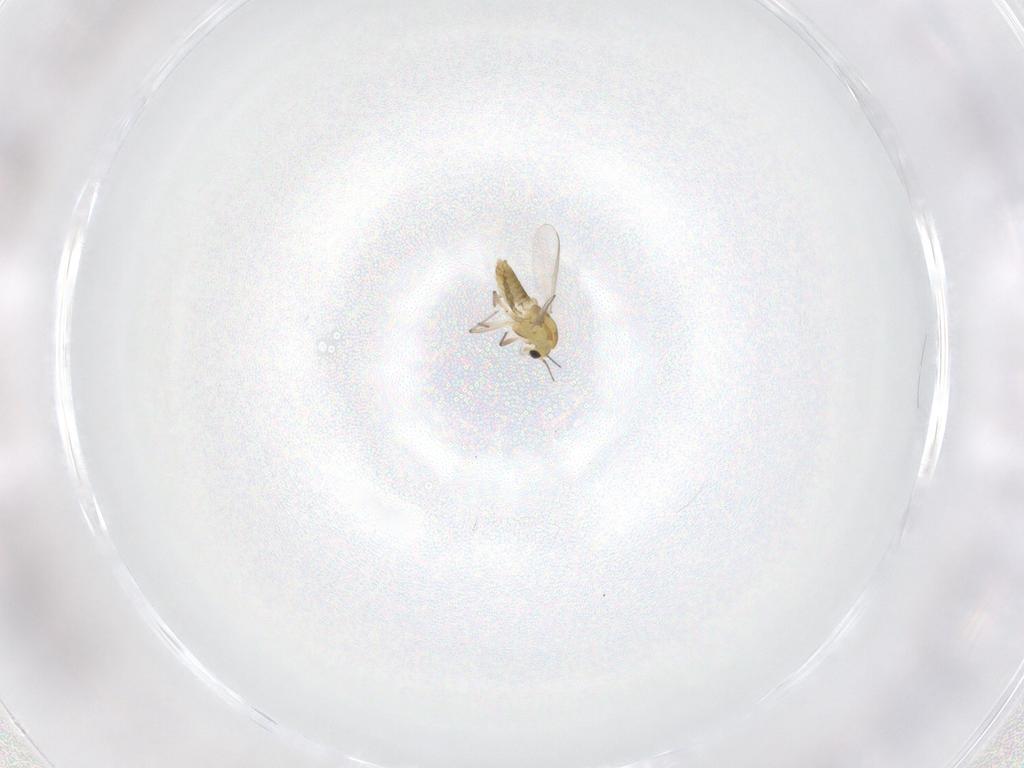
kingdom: Animalia
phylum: Arthropoda
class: Insecta
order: Diptera
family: Chironomidae
